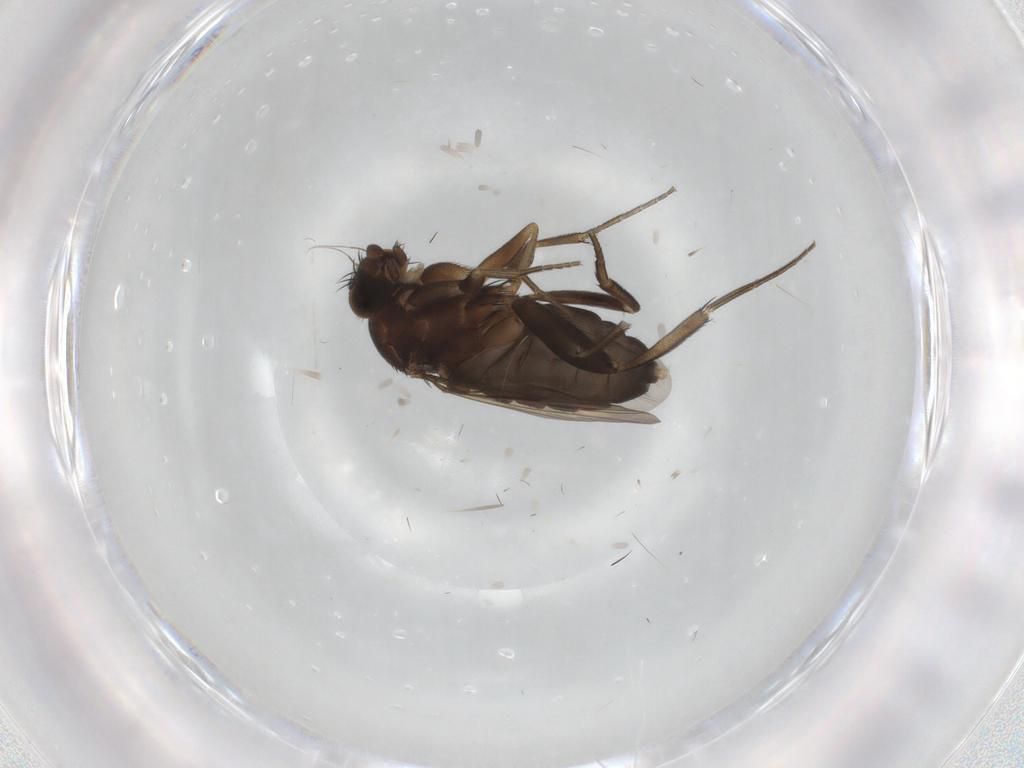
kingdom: Animalia
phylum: Arthropoda
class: Insecta
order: Diptera
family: Phoridae
